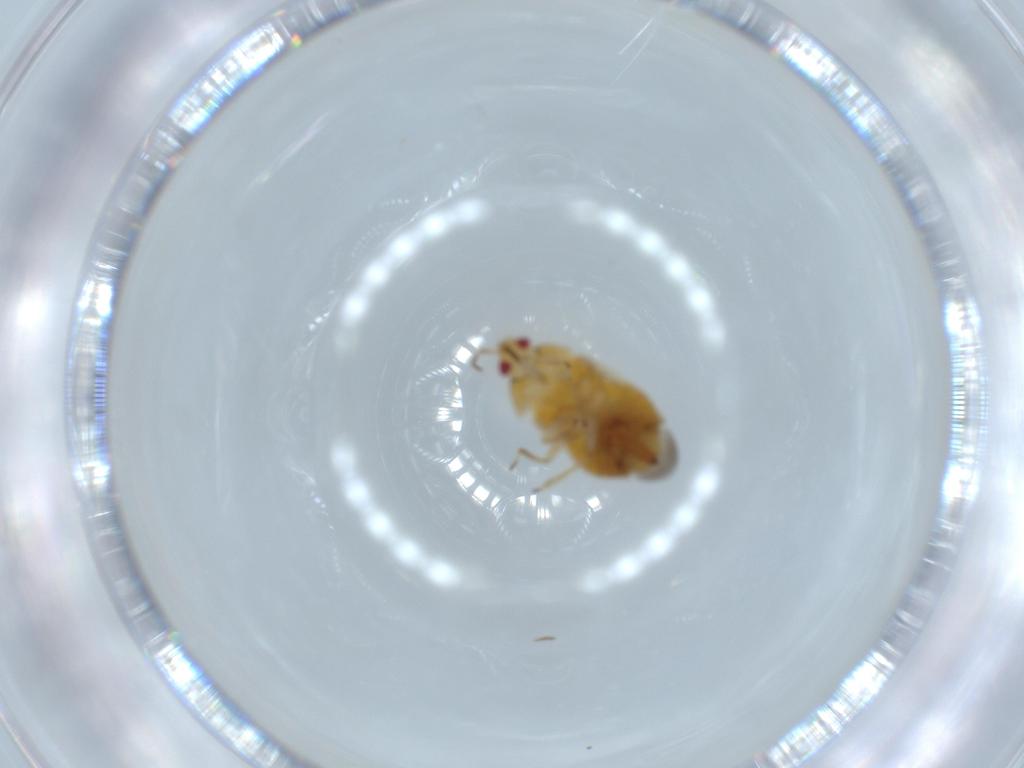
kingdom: Animalia
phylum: Arthropoda
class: Insecta
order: Hemiptera
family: Anthocoridae
